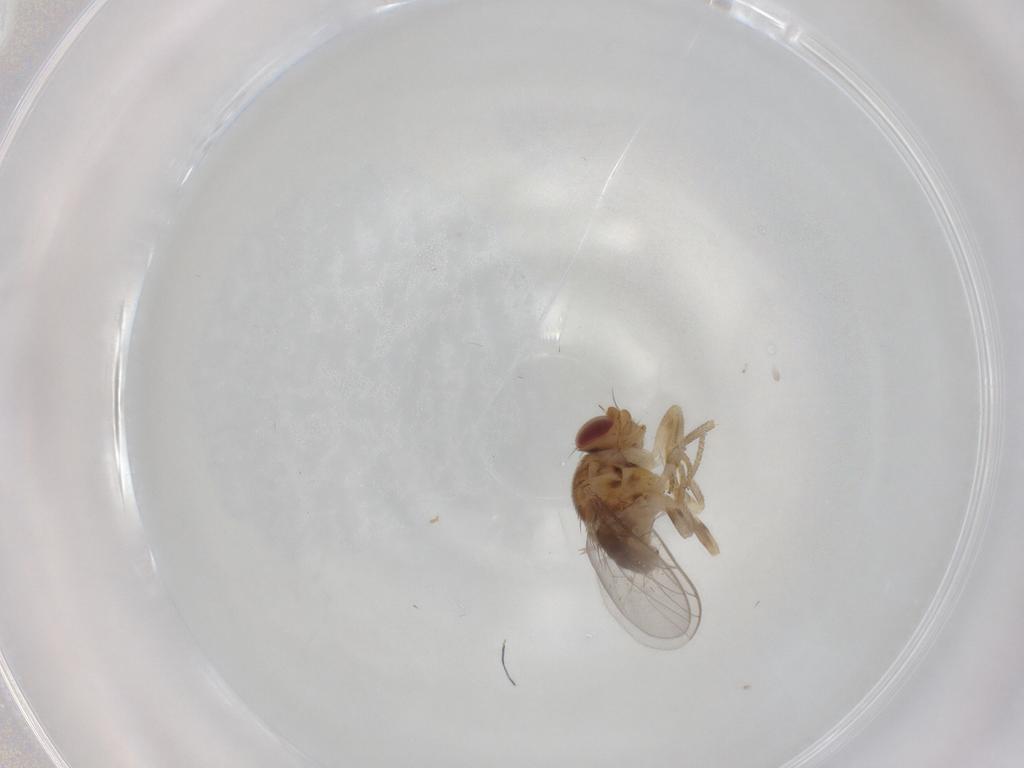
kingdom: Animalia
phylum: Arthropoda
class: Insecta
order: Diptera
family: Chloropidae
